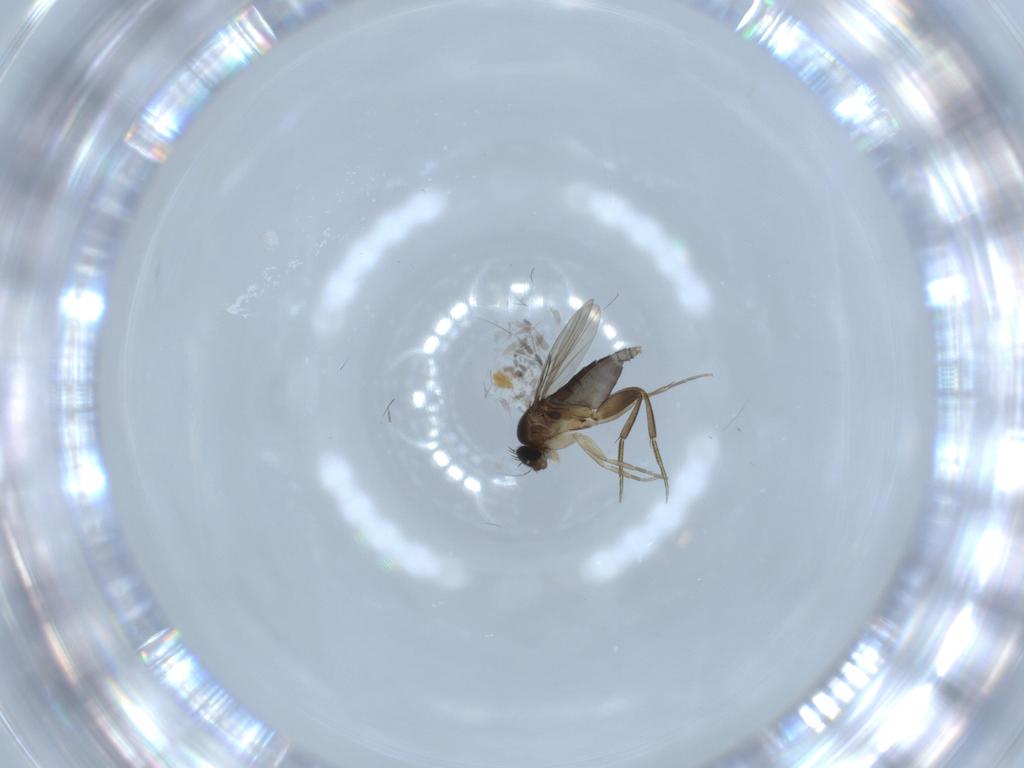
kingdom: Animalia
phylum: Arthropoda
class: Insecta
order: Diptera
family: Phoridae
